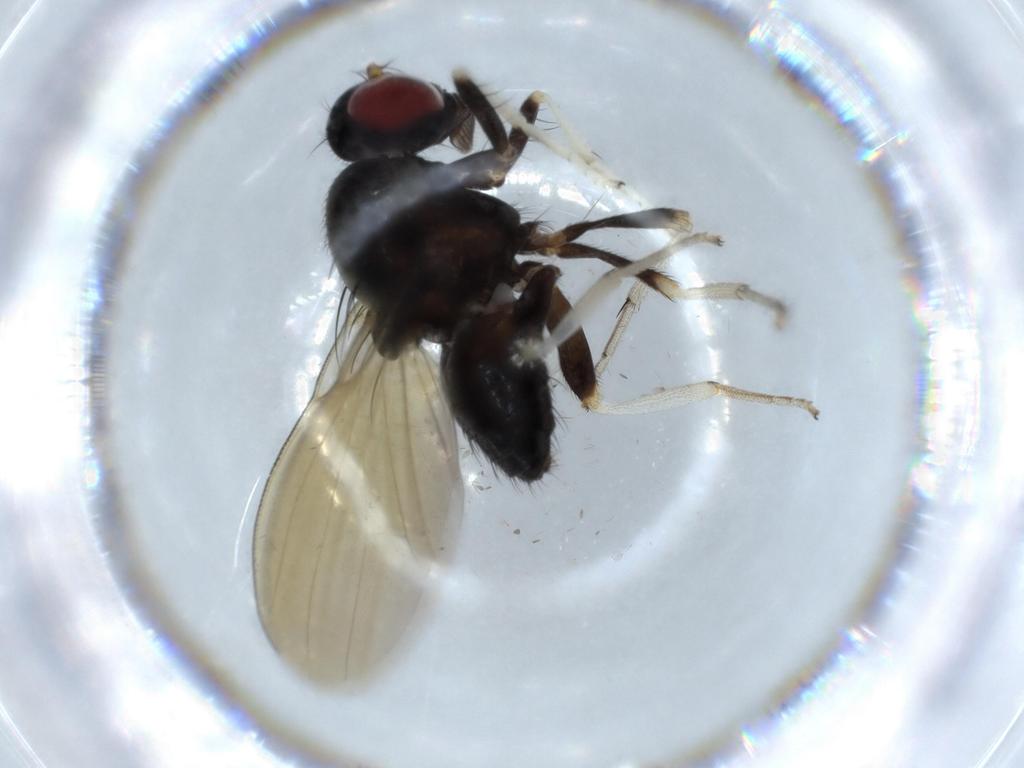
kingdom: Animalia
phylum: Arthropoda
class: Insecta
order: Diptera
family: Lauxaniidae
